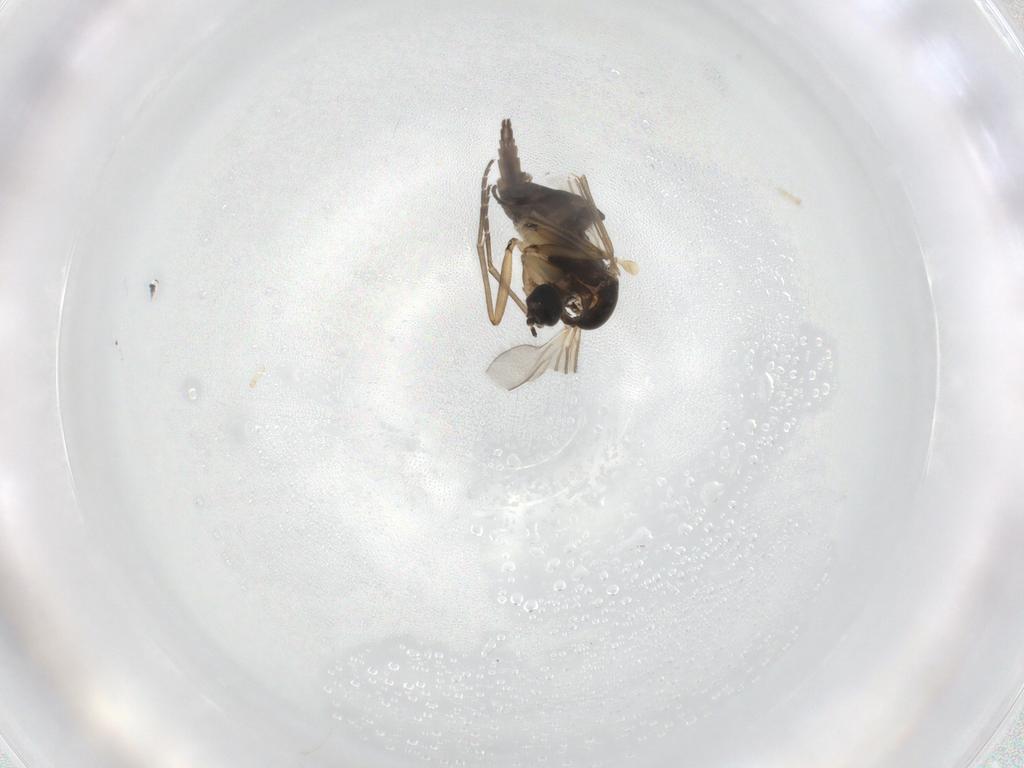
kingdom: Animalia
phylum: Arthropoda
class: Insecta
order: Diptera
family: Sciaridae
